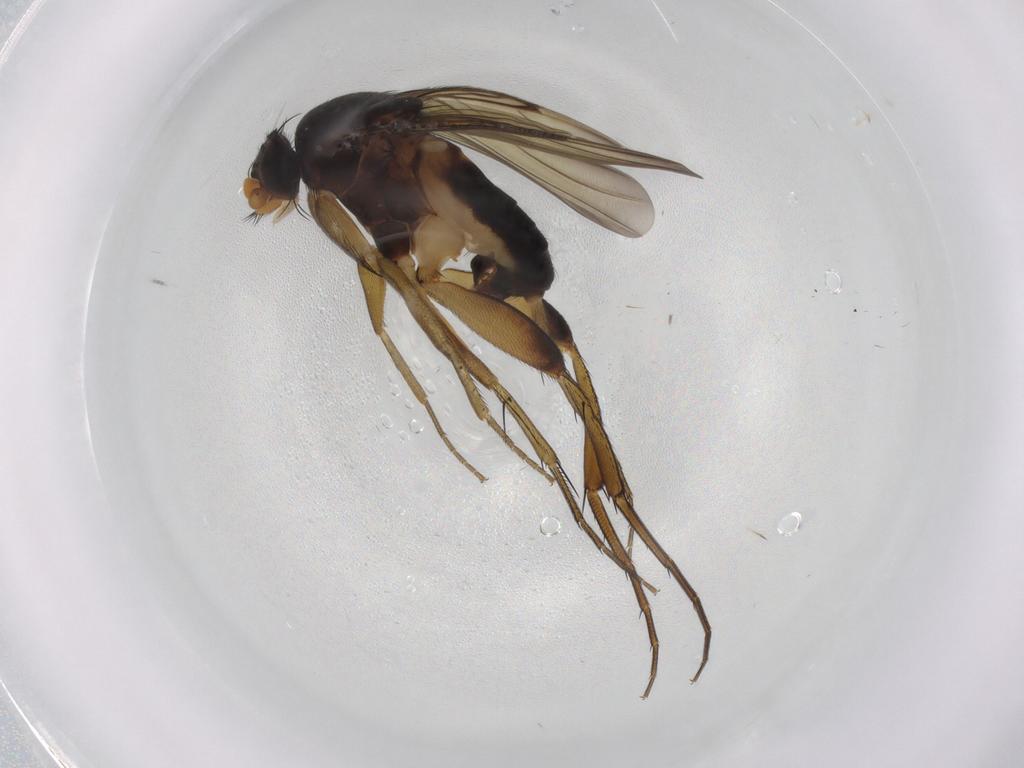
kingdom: Animalia
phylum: Arthropoda
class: Insecta
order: Diptera
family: Phoridae
